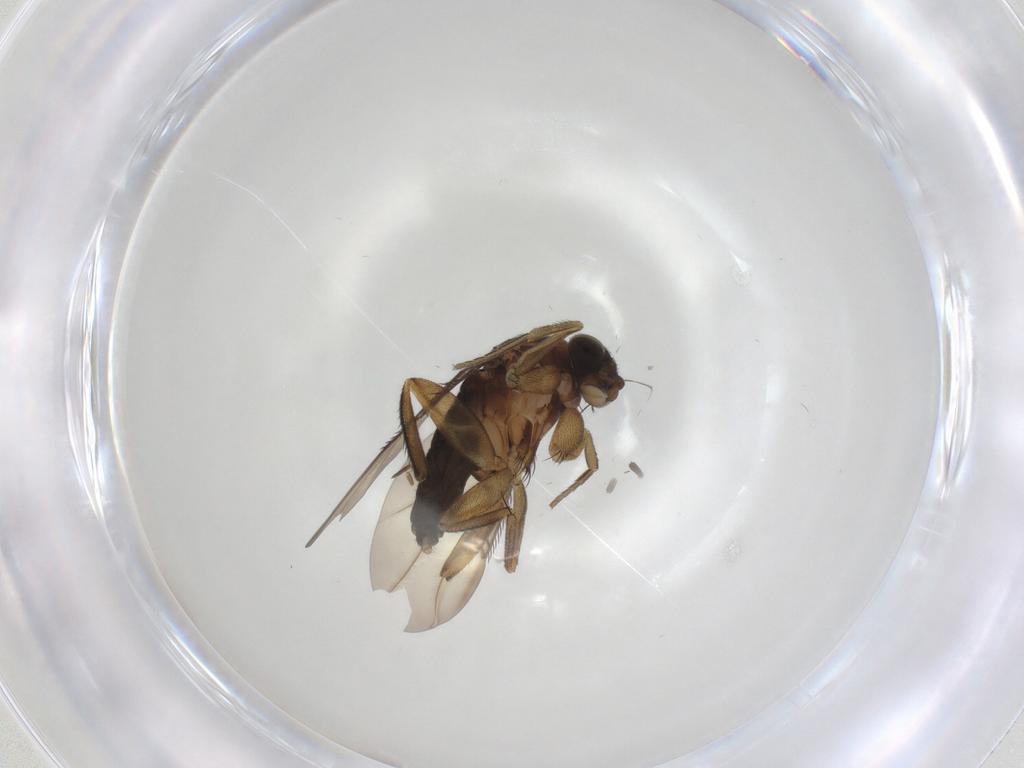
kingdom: Animalia
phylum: Arthropoda
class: Insecta
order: Diptera
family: Phoridae
